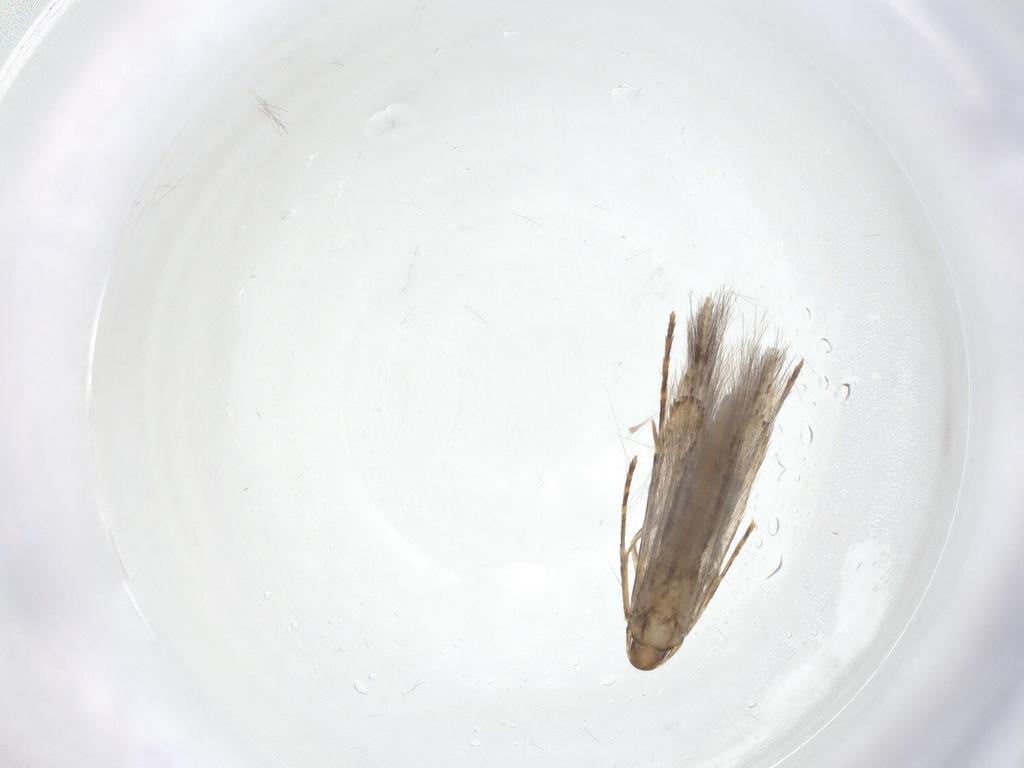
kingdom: Animalia
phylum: Arthropoda
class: Insecta
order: Lepidoptera
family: Cosmopterigidae
